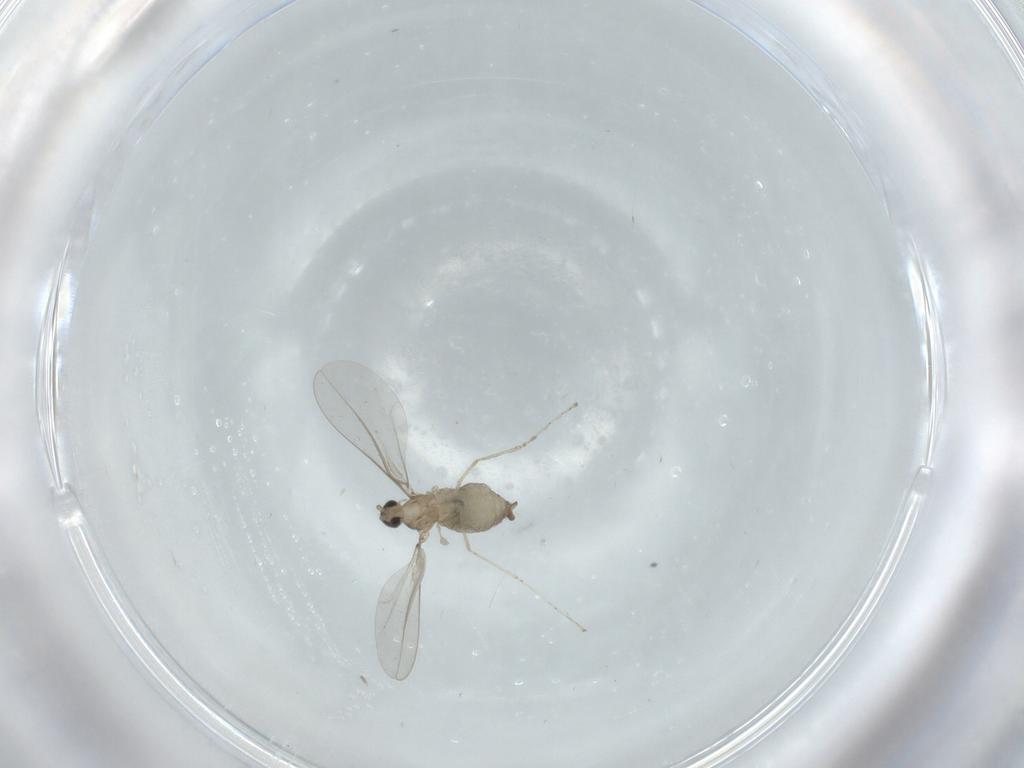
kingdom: Animalia
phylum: Arthropoda
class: Insecta
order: Diptera
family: Cecidomyiidae
